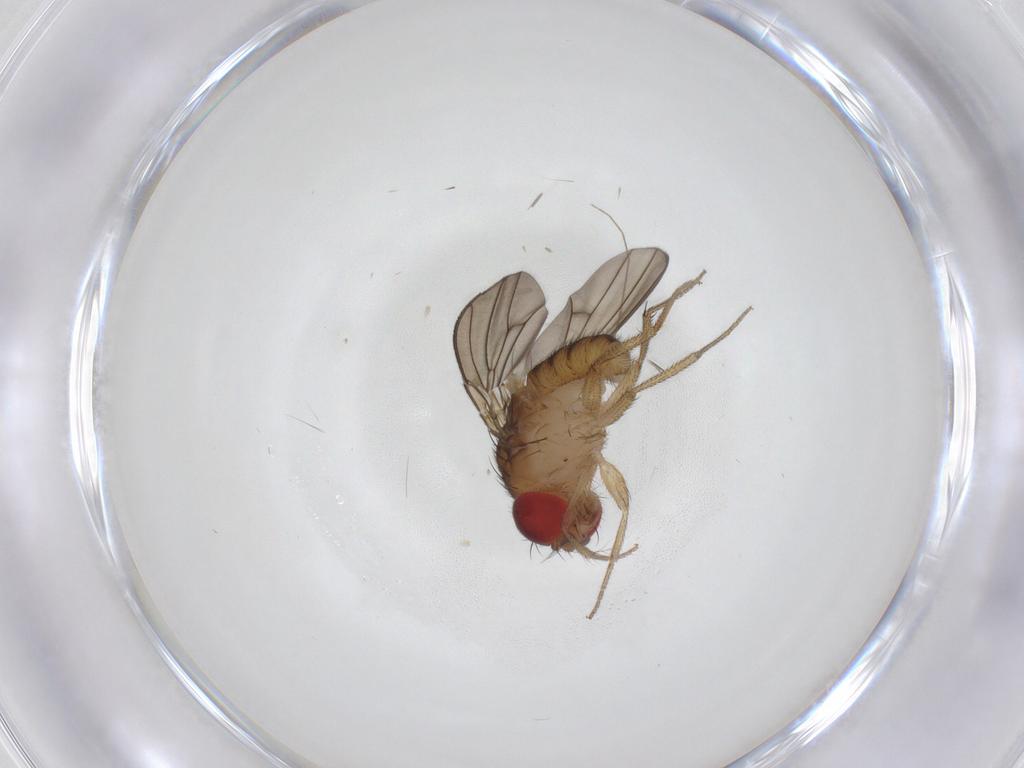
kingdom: Animalia
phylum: Arthropoda
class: Insecta
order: Diptera
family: Drosophilidae
